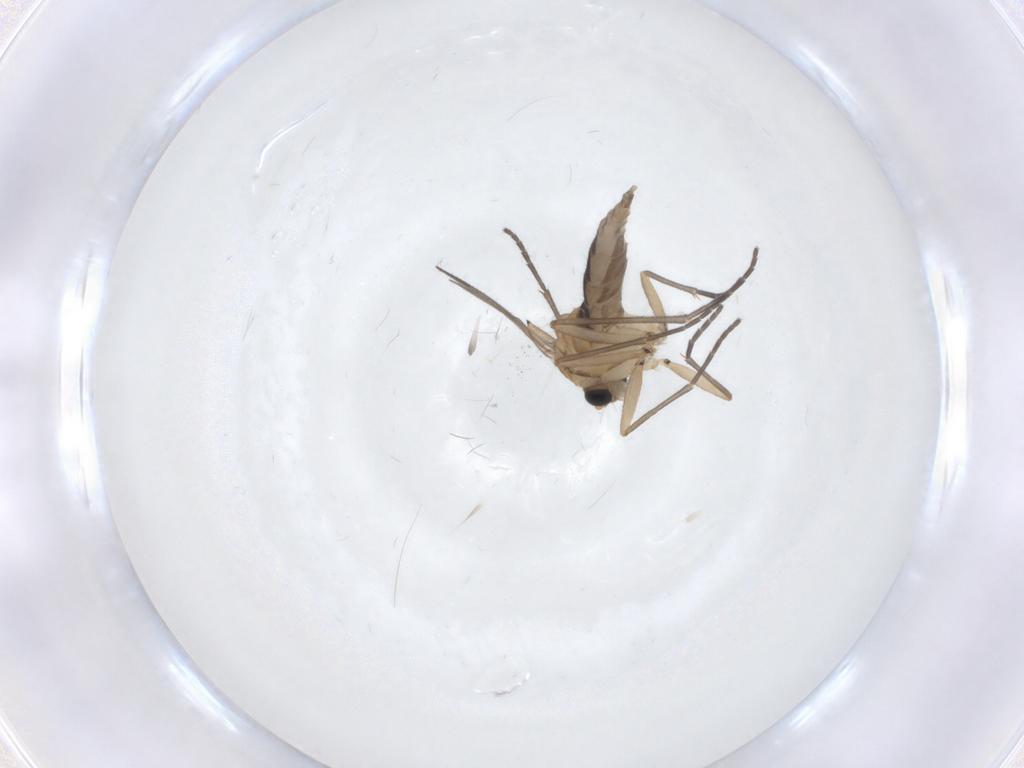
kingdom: Animalia
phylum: Arthropoda
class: Insecta
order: Diptera
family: Sciaridae
